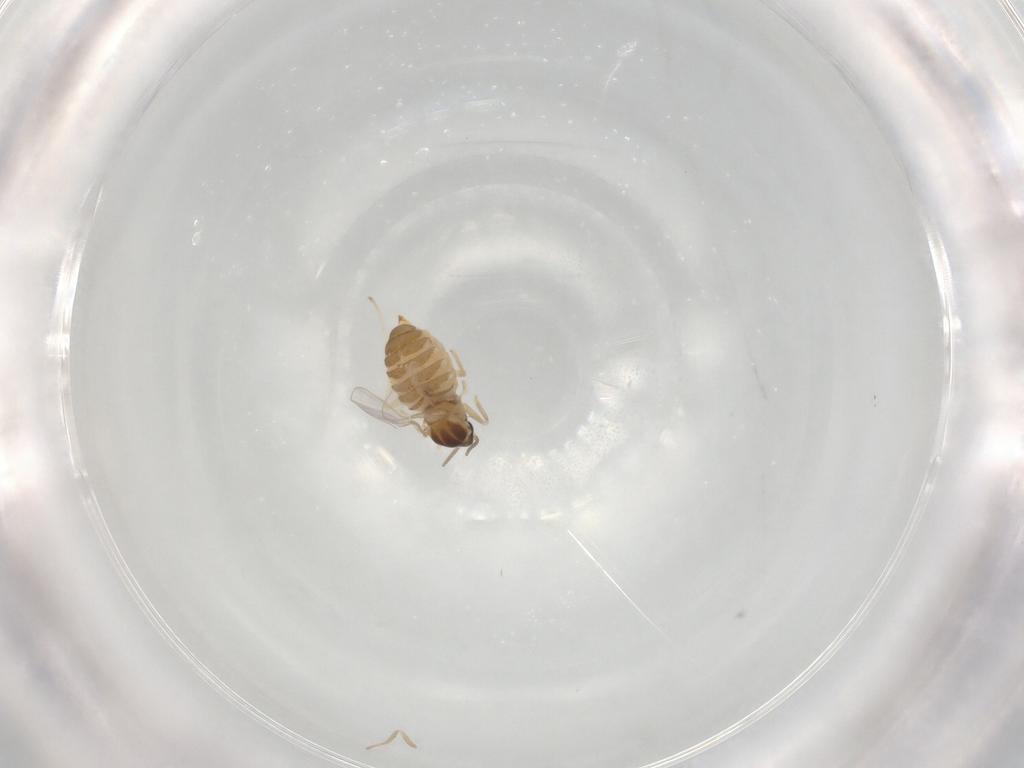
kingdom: Animalia
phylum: Arthropoda
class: Insecta
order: Diptera
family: Cecidomyiidae
